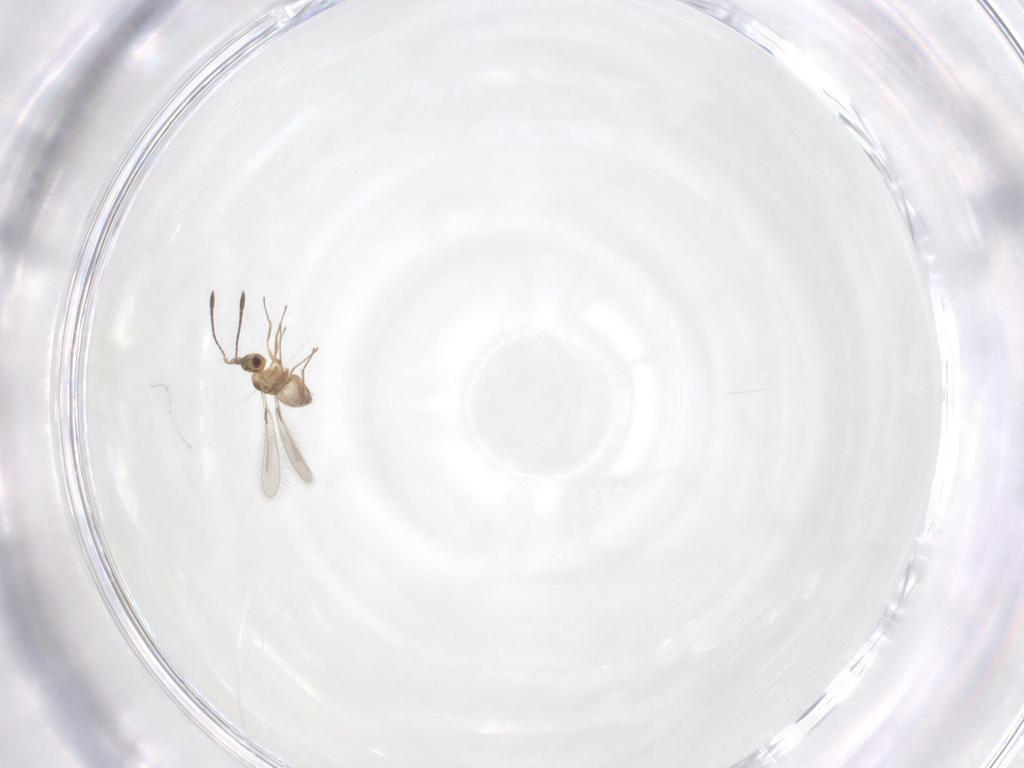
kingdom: Animalia
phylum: Arthropoda
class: Insecta
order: Hymenoptera
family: Mymaridae
